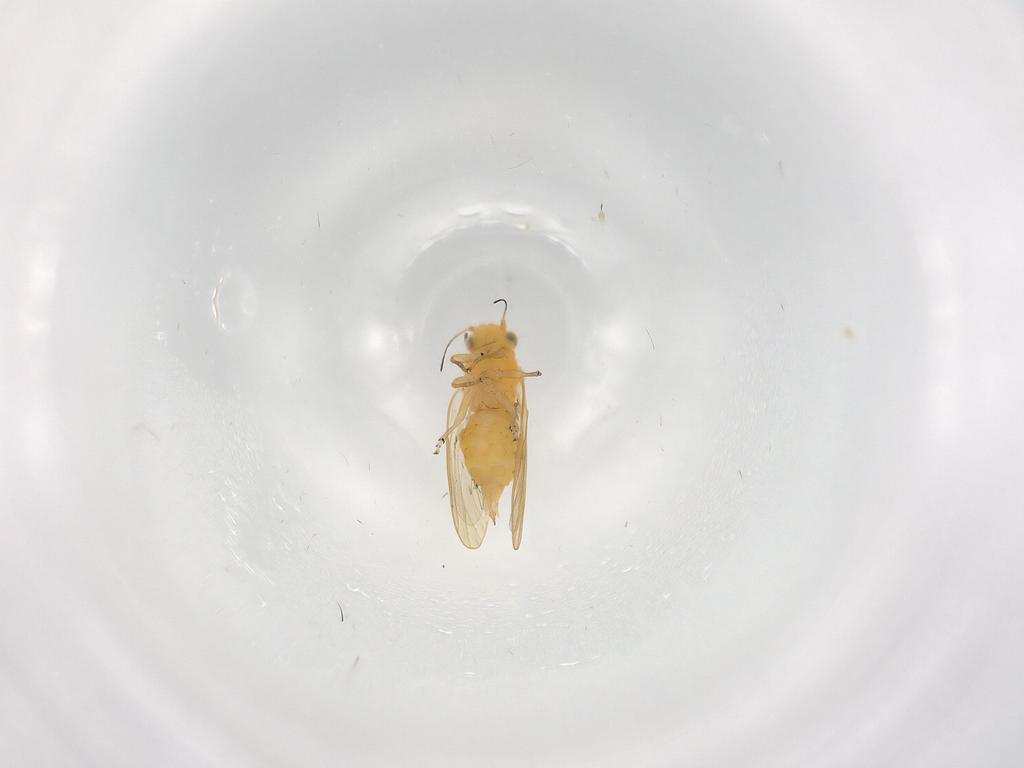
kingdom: Animalia
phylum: Arthropoda
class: Insecta
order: Hemiptera
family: Psyllidae
